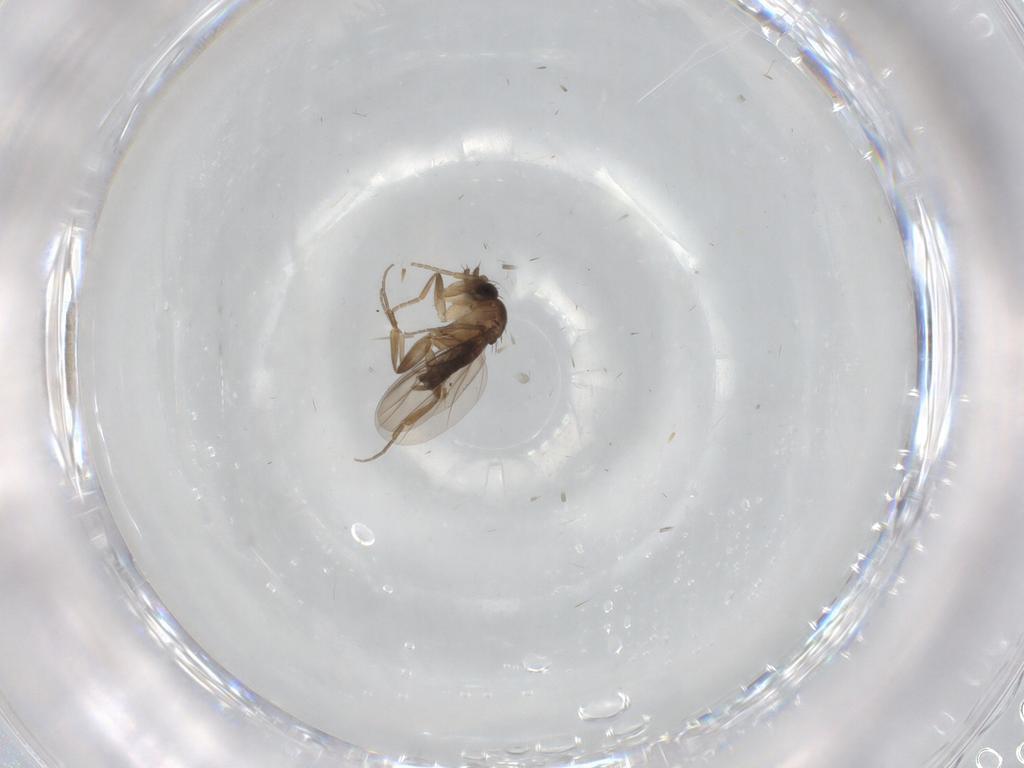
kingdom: Animalia
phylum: Arthropoda
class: Insecta
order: Diptera
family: Phoridae
